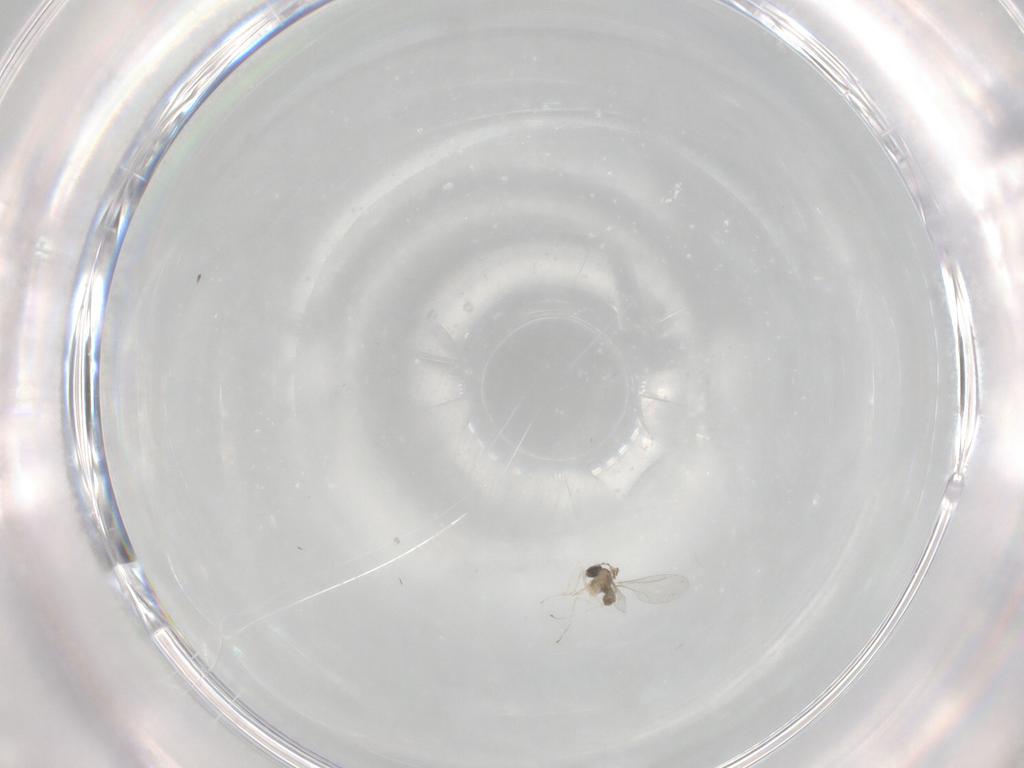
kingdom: Animalia
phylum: Arthropoda
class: Insecta
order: Diptera
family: Cecidomyiidae
